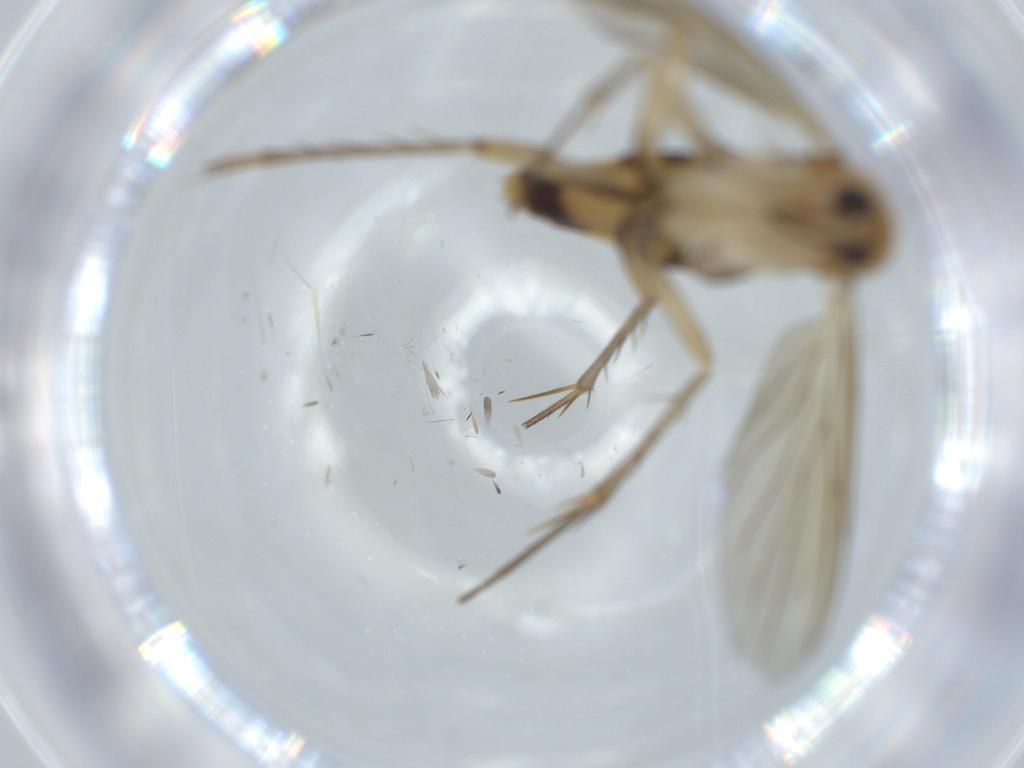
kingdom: Animalia
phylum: Arthropoda
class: Insecta
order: Diptera
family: Mycetophilidae
